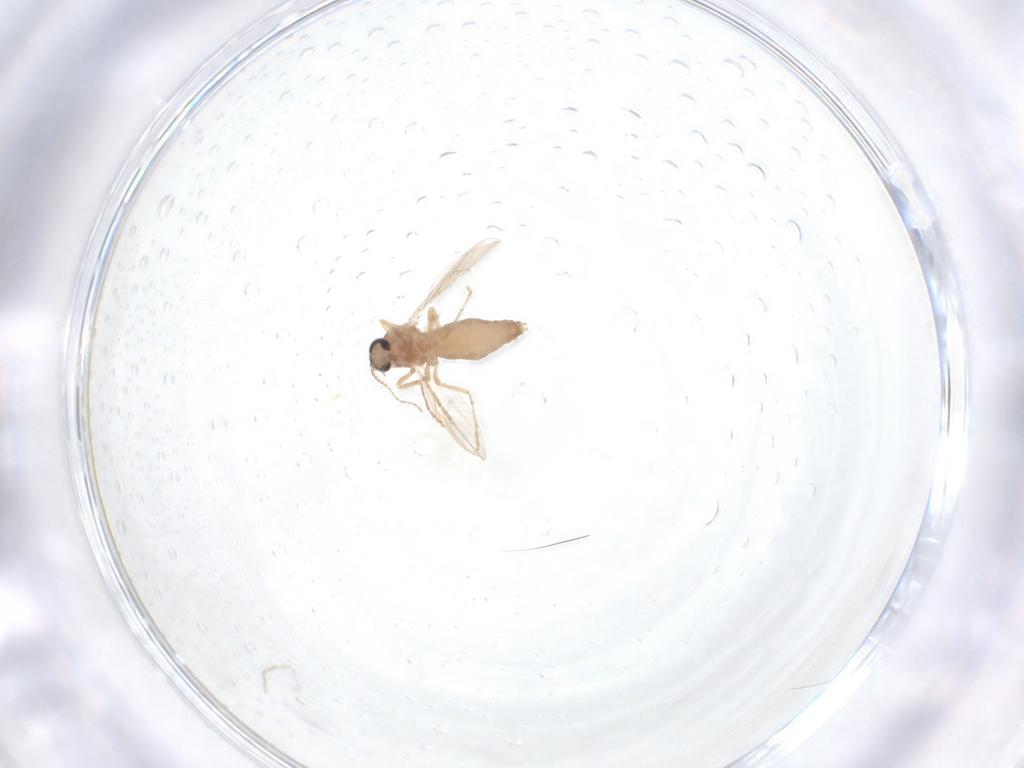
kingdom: Animalia
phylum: Arthropoda
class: Insecta
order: Diptera
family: Ceratopogonidae
